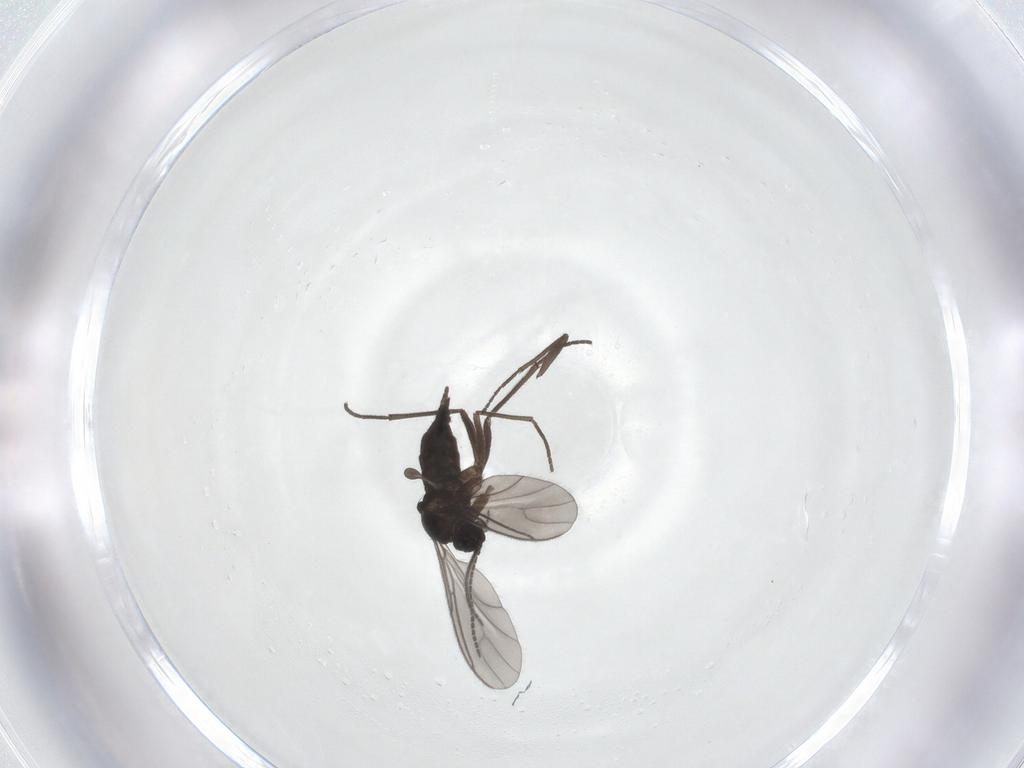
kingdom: Animalia
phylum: Arthropoda
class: Insecta
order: Diptera
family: Sciaridae
